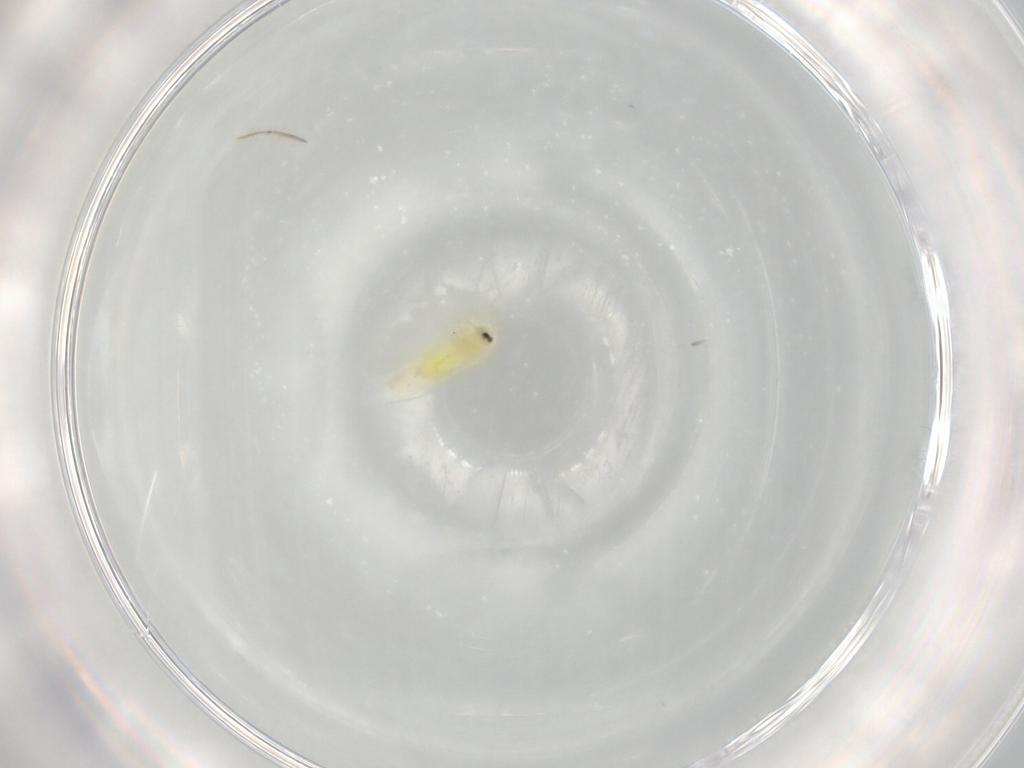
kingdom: Animalia
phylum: Arthropoda
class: Insecta
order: Hemiptera
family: Aleyrodidae
